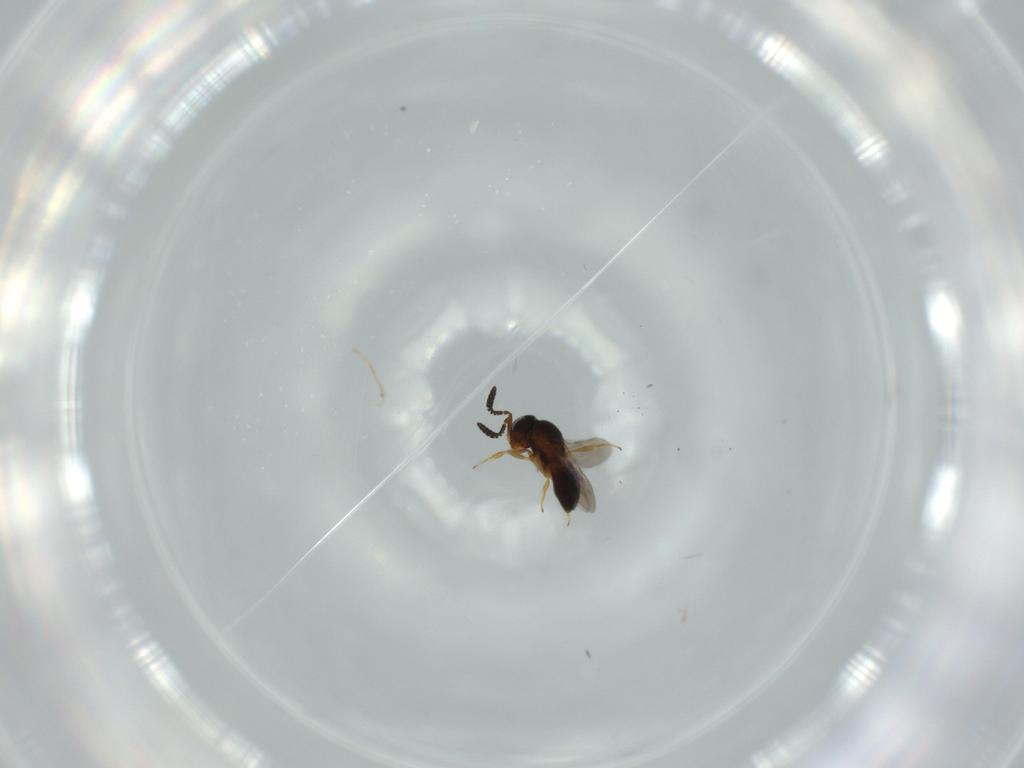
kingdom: Animalia
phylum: Arthropoda
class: Insecta
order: Hymenoptera
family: Scelionidae
